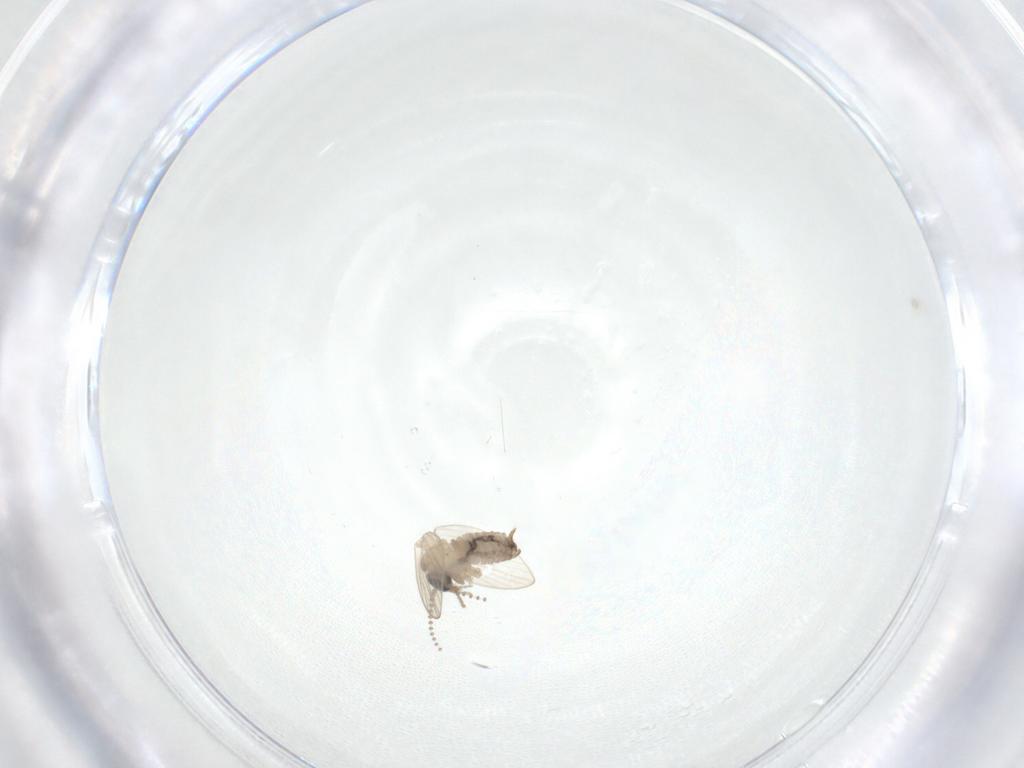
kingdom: Animalia
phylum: Arthropoda
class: Insecta
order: Diptera
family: Psychodidae
